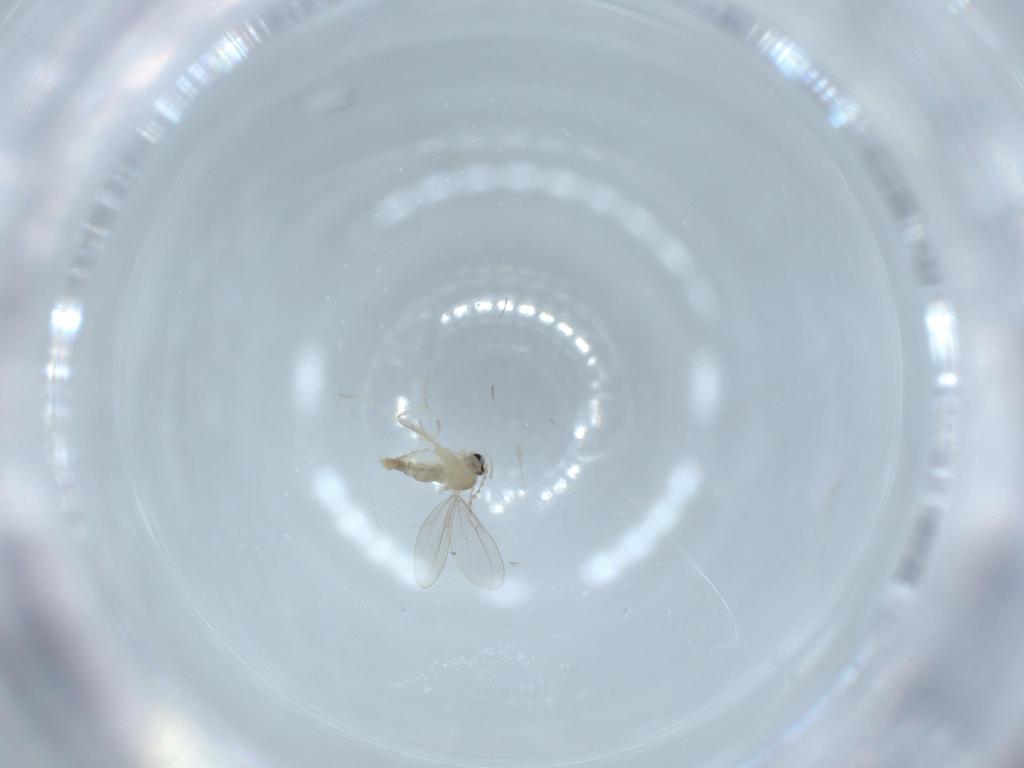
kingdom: Animalia
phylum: Arthropoda
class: Insecta
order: Diptera
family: Cecidomyiidae
